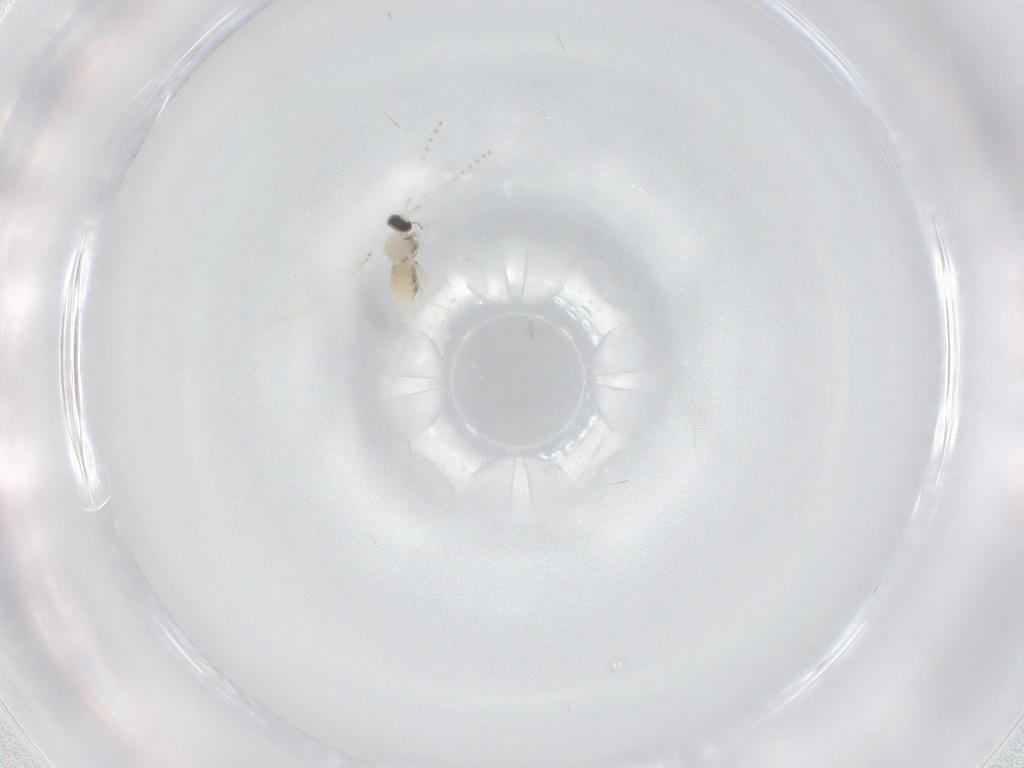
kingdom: Animalia
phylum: Arthropoda
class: Insecta
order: Diptera
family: Cecidomyiidae
